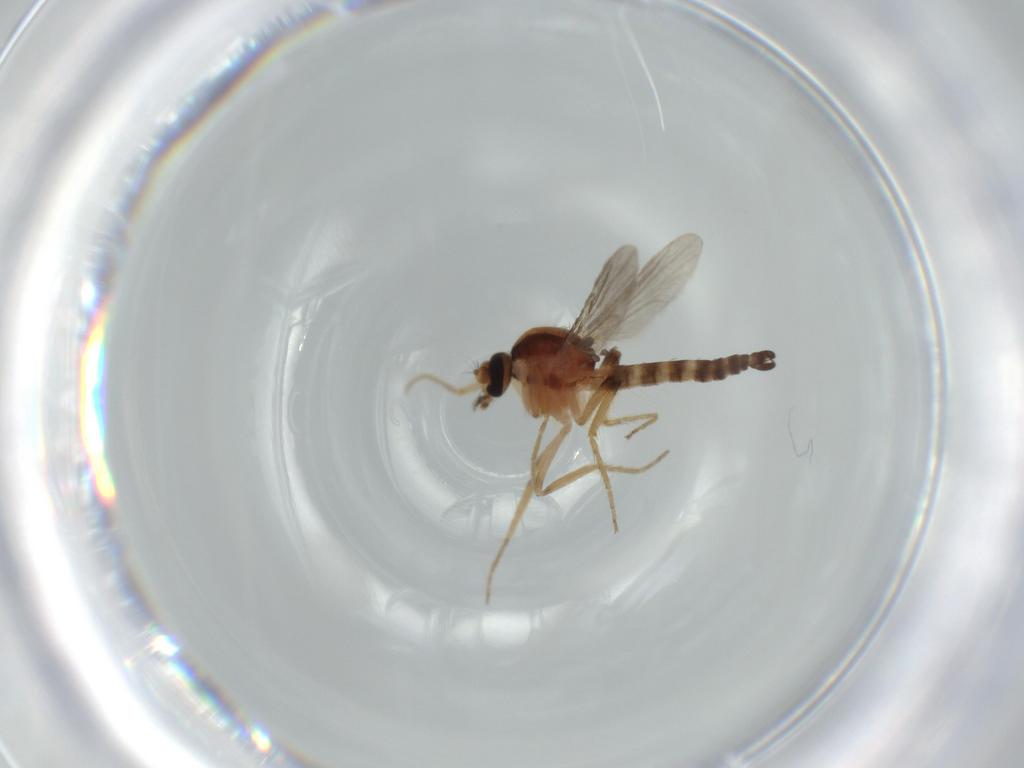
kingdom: Animalia
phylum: Arthropoda
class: Insecta
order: Diptera
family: Ceratopogonidae
